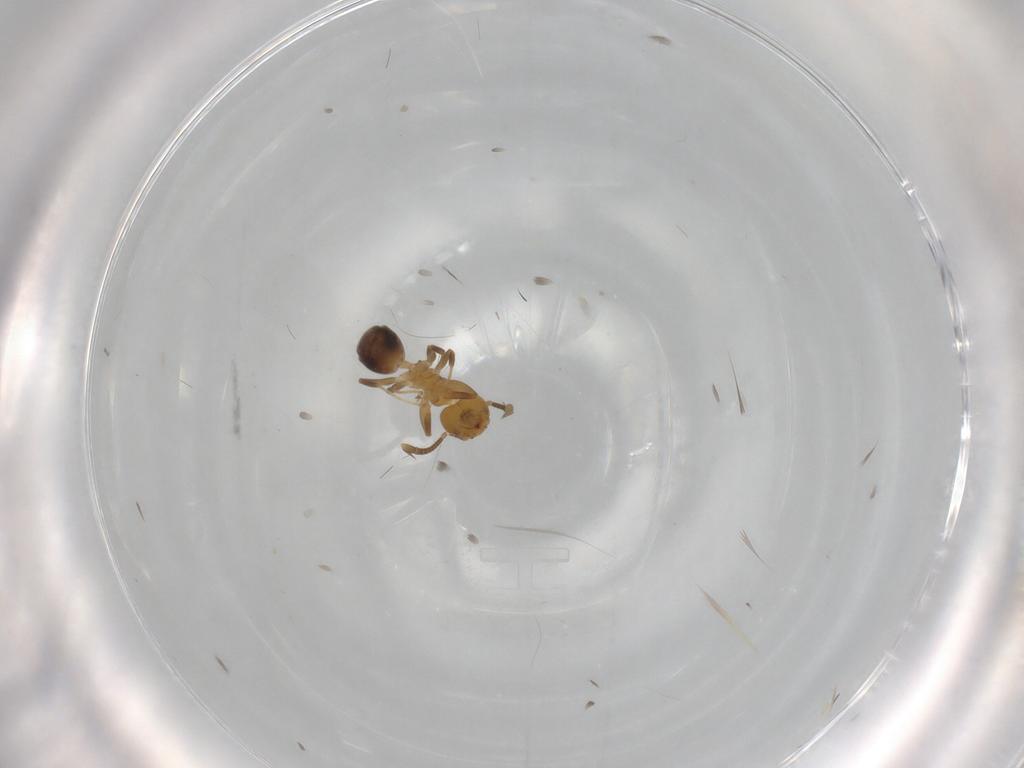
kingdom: Animalia
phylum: Arthropoda
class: Insecta
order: Hymenoptera
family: Formicidae
